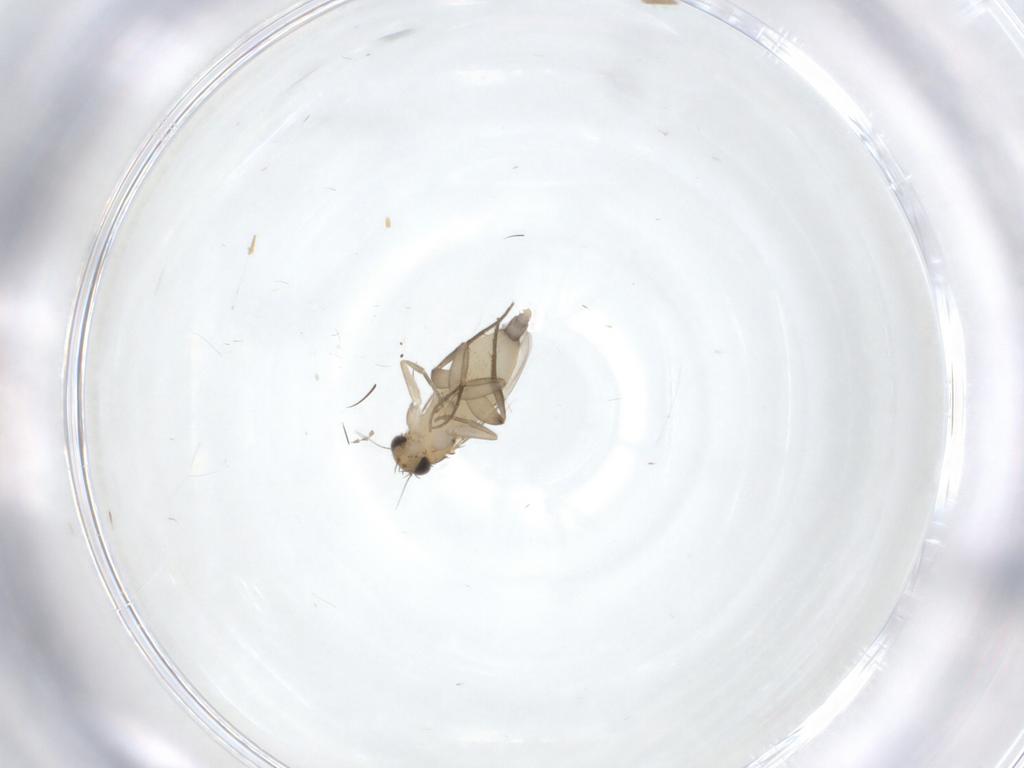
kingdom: Animalia
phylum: Arthropoda
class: Insecta
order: Diptera
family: Phoridae
